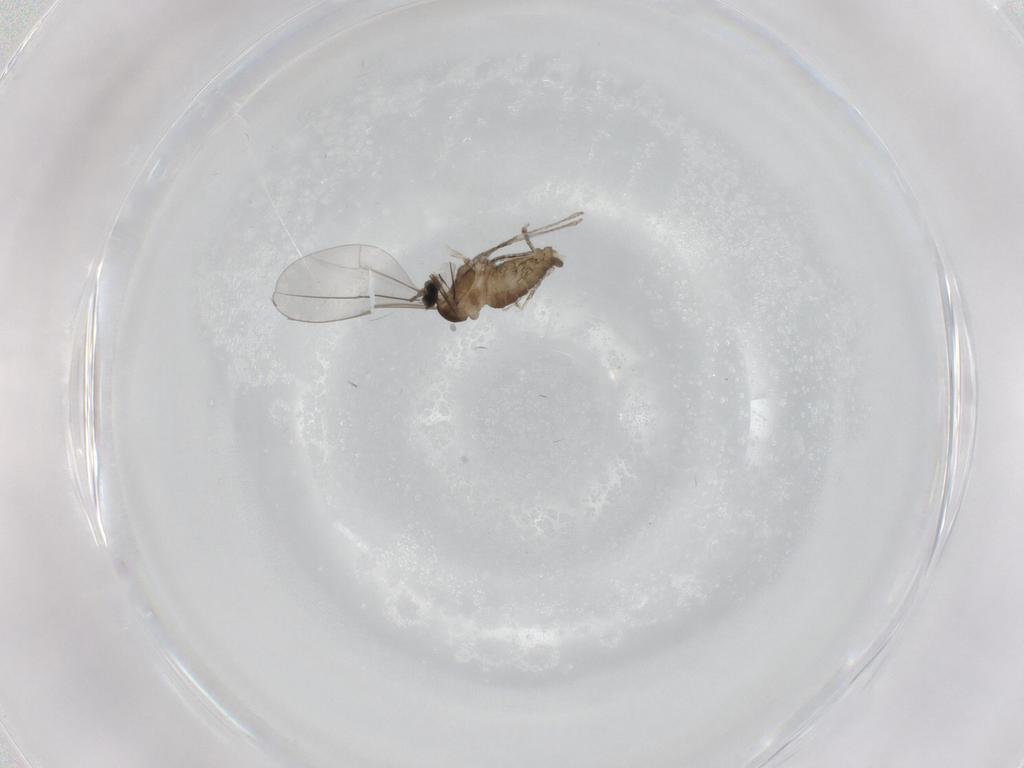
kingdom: Animalia
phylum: Arthropoda
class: Insecta
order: Diptera
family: Cecidomyiidae
